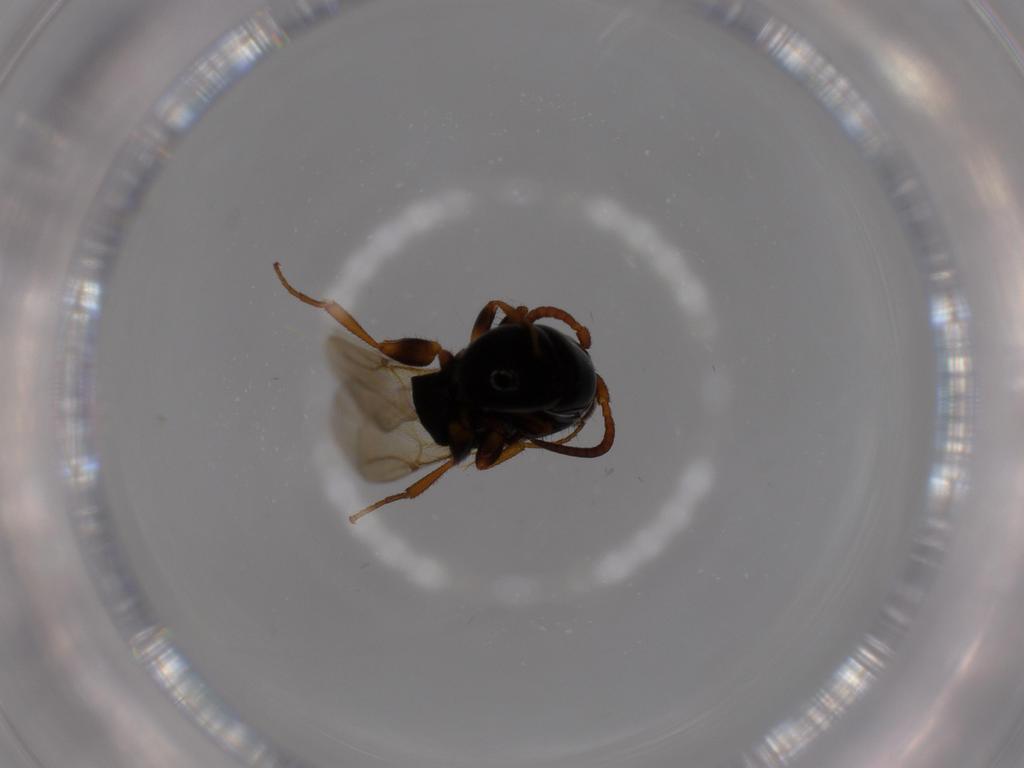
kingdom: Animalia
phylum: Arthropoda
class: Insecta
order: Hymenoptera
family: Bethylidae
